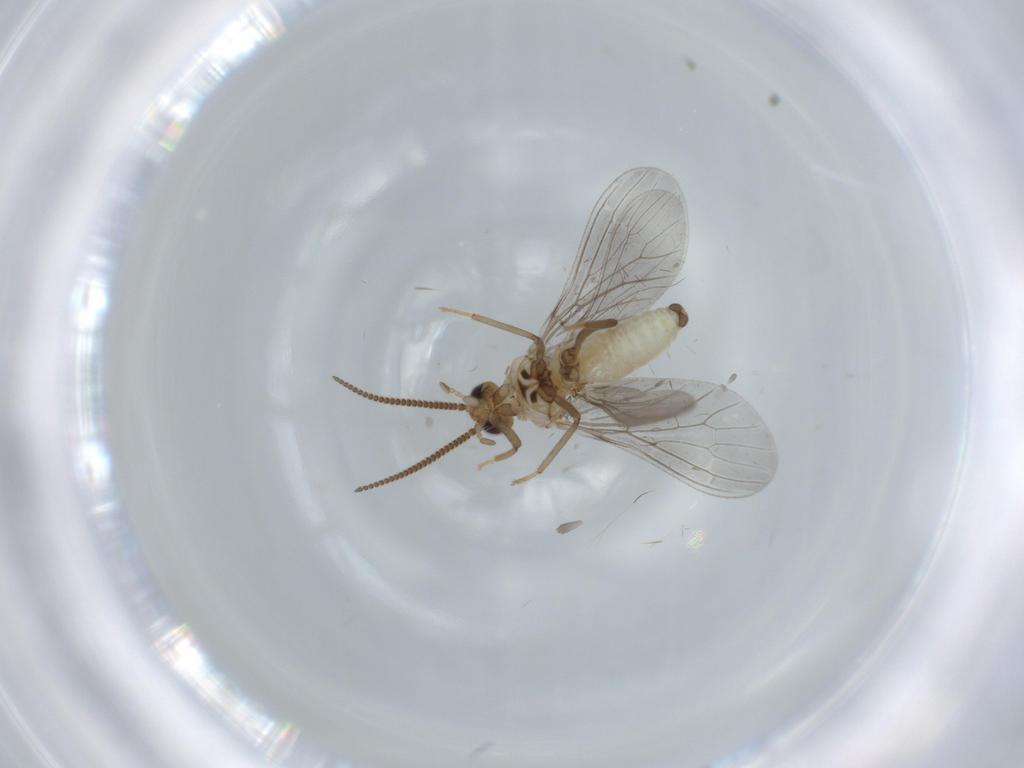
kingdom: Animalia
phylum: Arthropoda
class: Insecta
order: Neuroptera
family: Coniopterygidae
